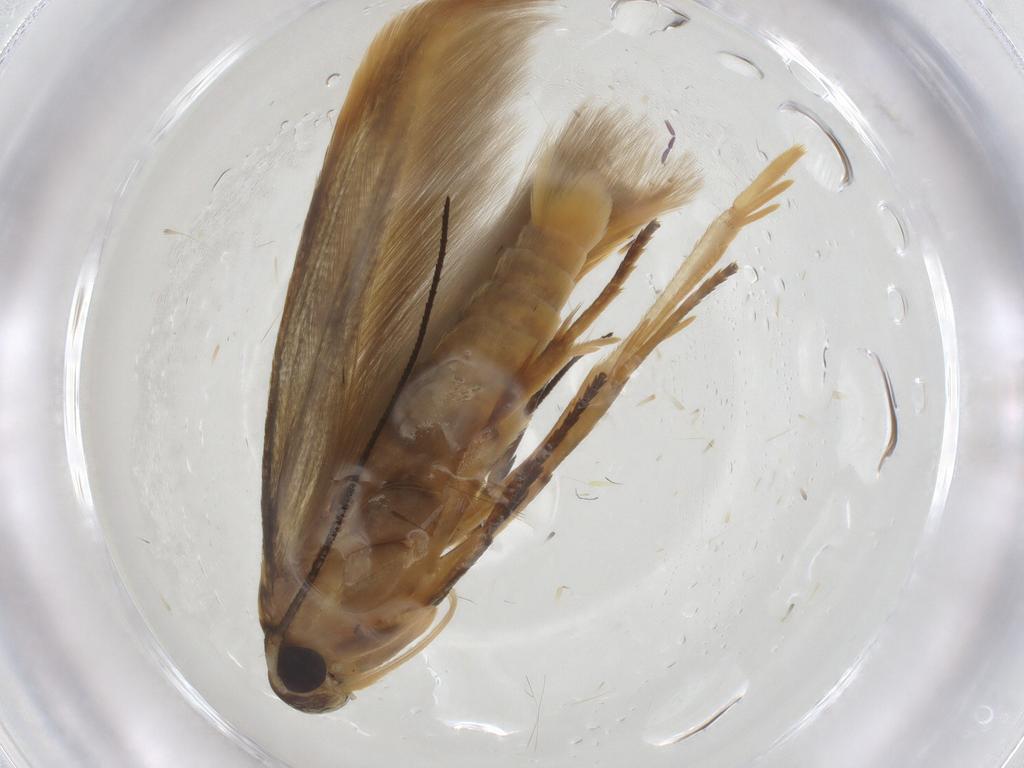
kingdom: Animalia
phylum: Arthropoda
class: Insecta
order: Lepidoptera
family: Stathmopodidae
